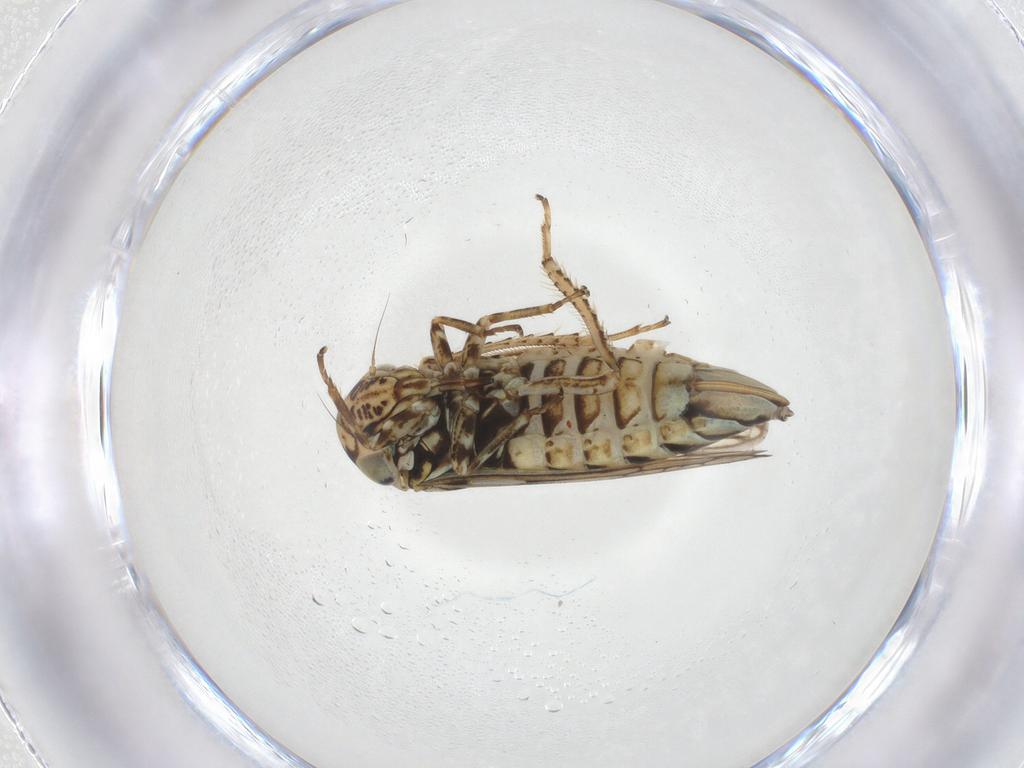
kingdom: Animalia
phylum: Arthropoda
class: Insecta
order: Hemiptera
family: Cicadellidae
